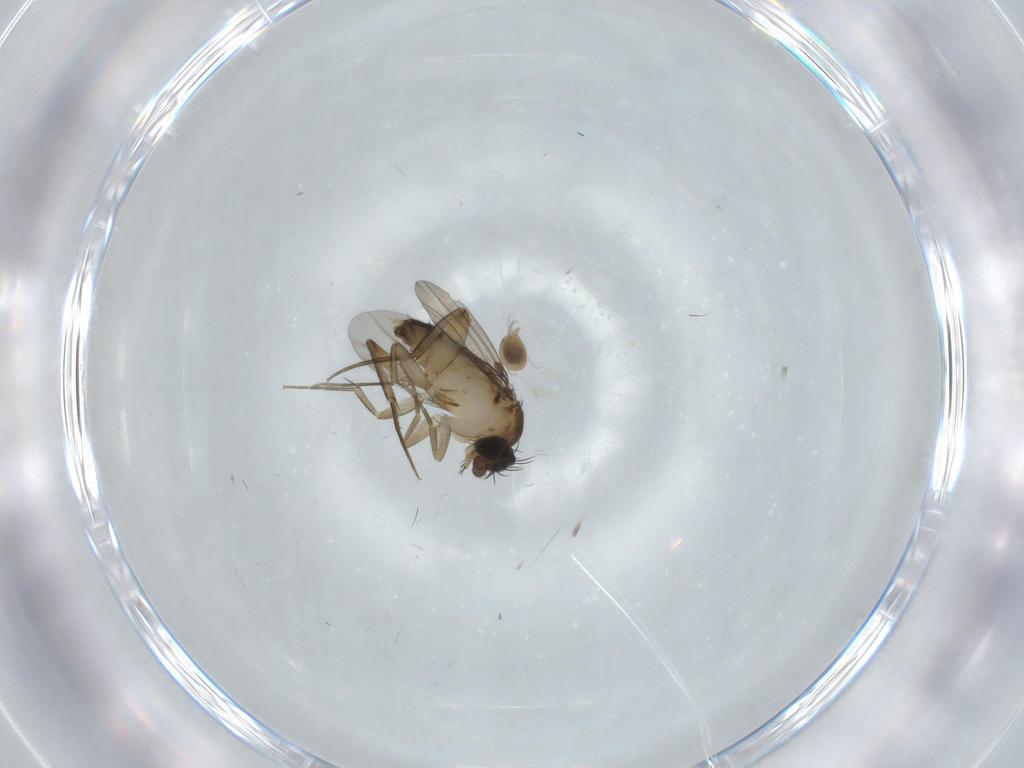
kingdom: Animalia
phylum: Arthropoda
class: Insecta
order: Diptera
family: Phoridae
